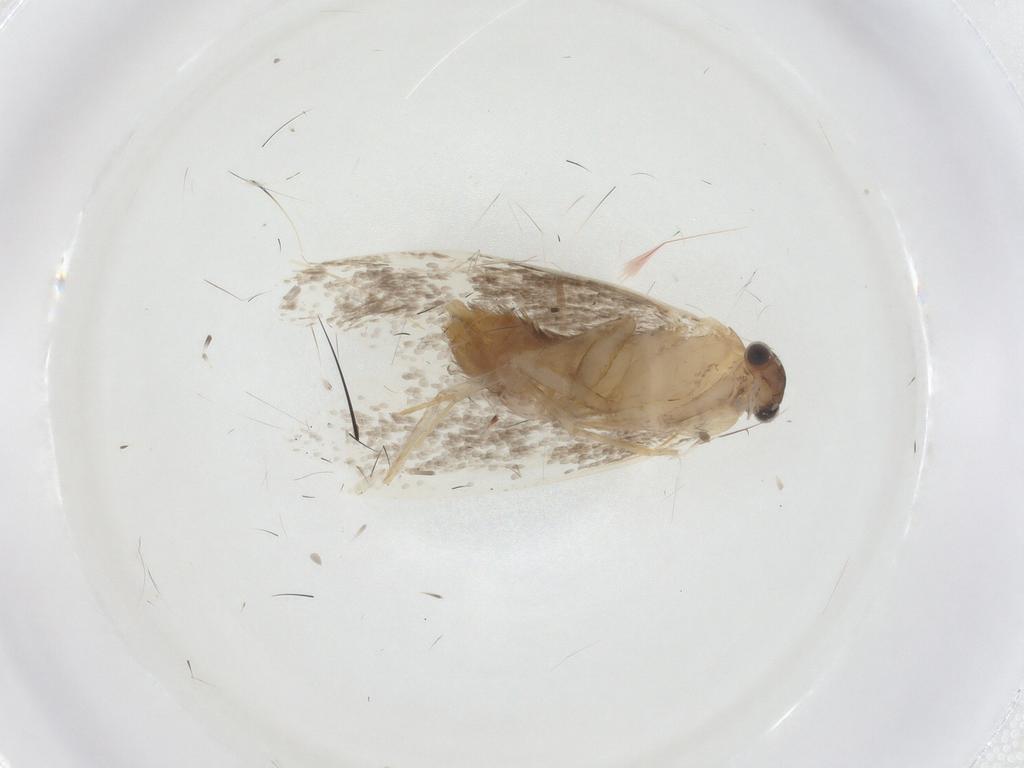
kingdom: Animalia
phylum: Arthropoda
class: Insecta
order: Lepidoptera
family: Dryadaulidae
